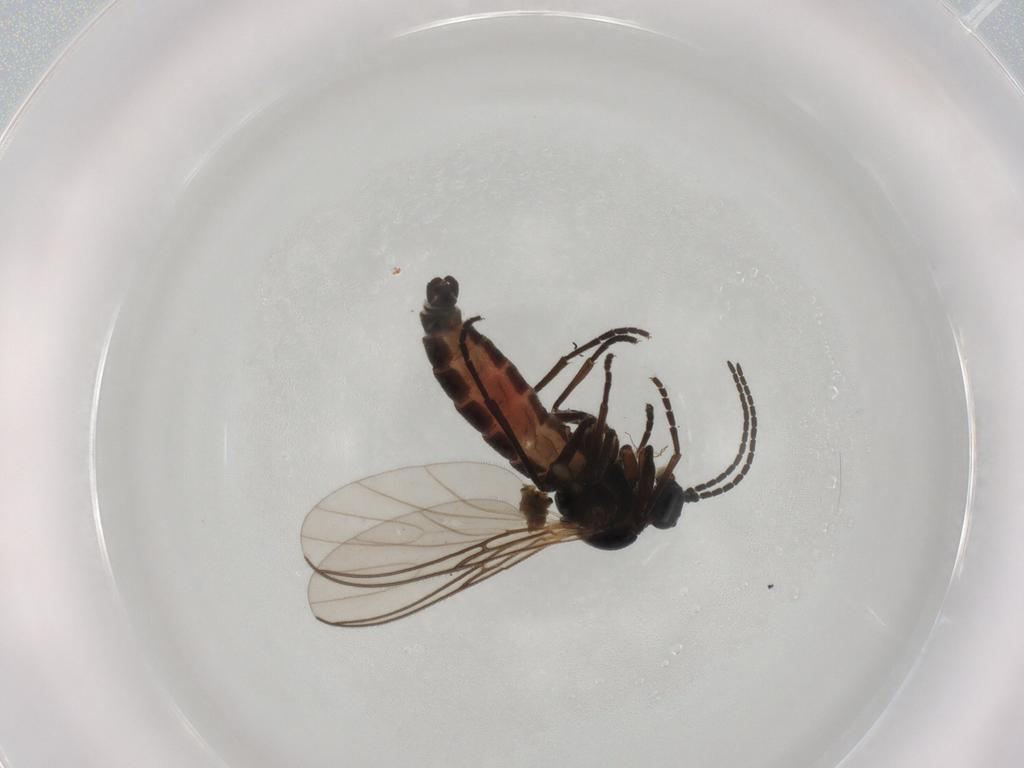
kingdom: Animalia
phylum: Arthropoda
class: Insecta
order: Diptera
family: Sciaridae
